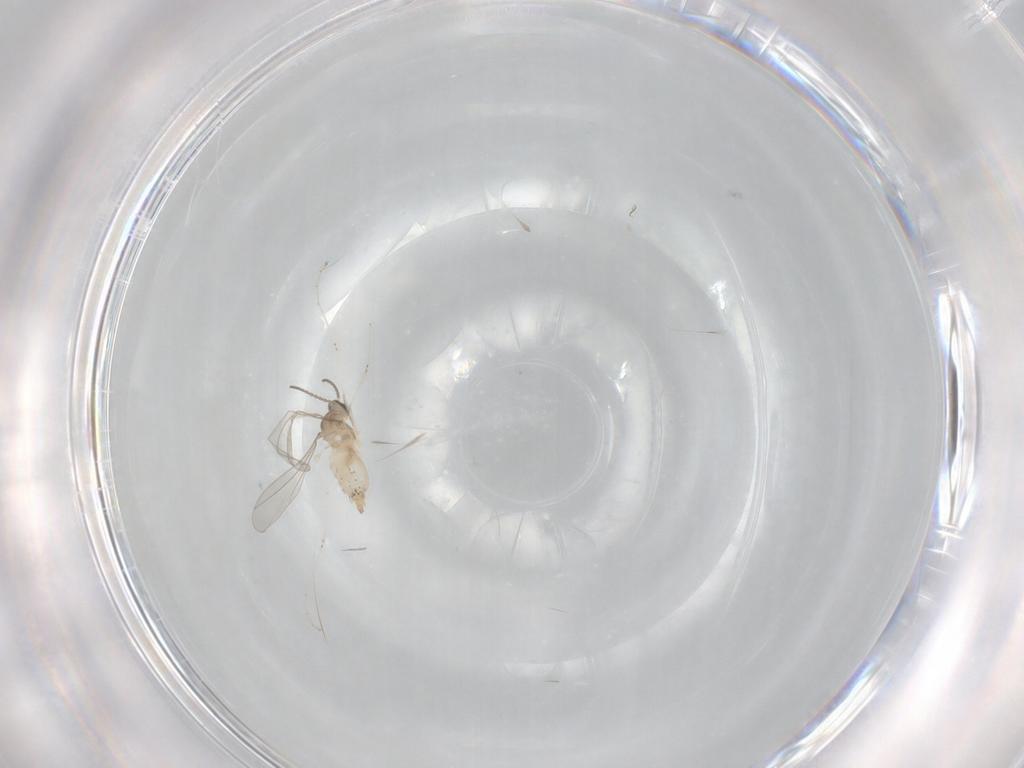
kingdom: Animalia
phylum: Arthropoda
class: Insecta
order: Diptera
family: Cecidomyiidae
